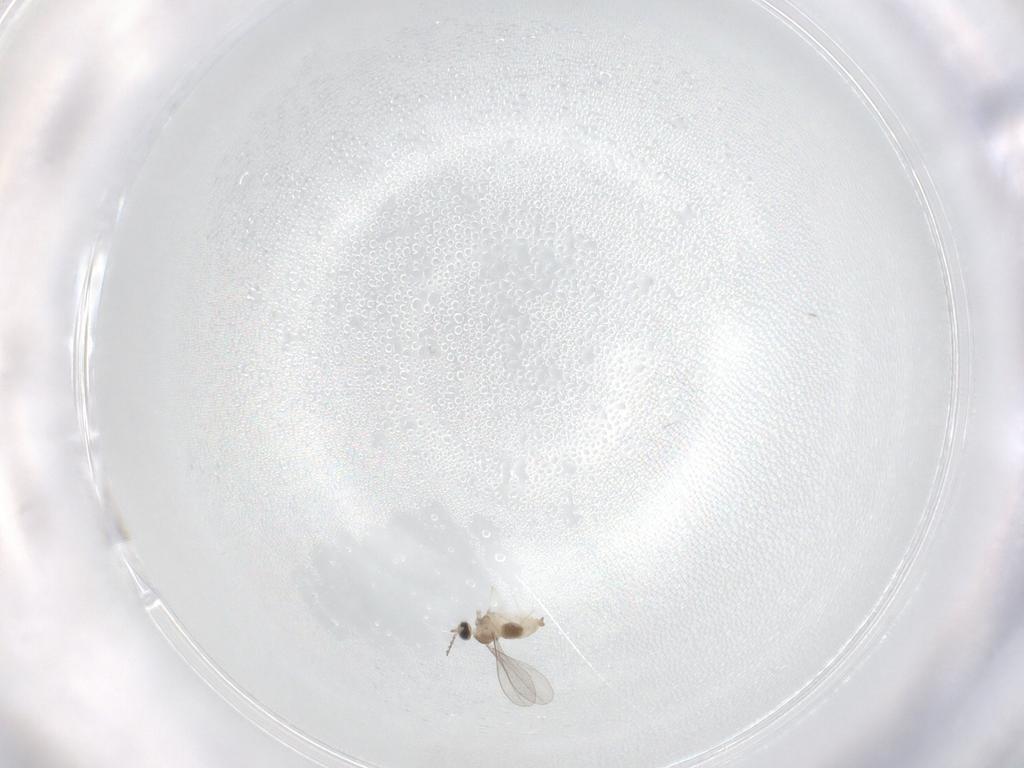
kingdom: Animalia
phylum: Arthropoda
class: Insecta
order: Diptera
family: Cecidomyiidae
